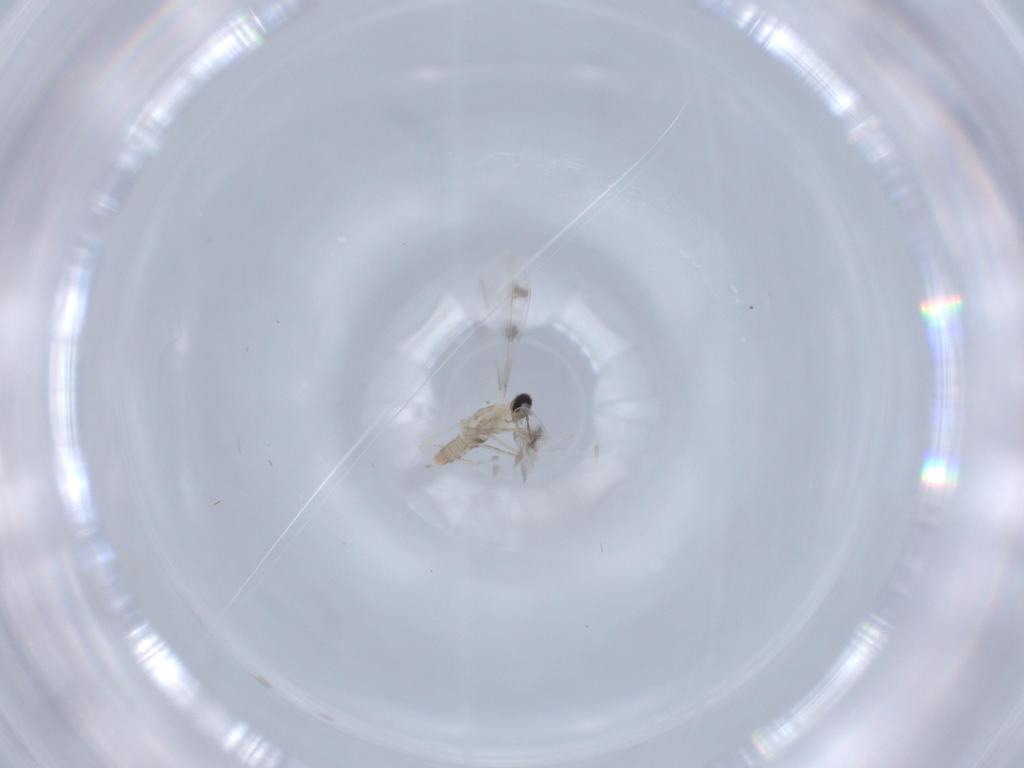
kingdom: Animalia
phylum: Arthropoda
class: Insecta
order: Diptera
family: Cecidomyiidae
